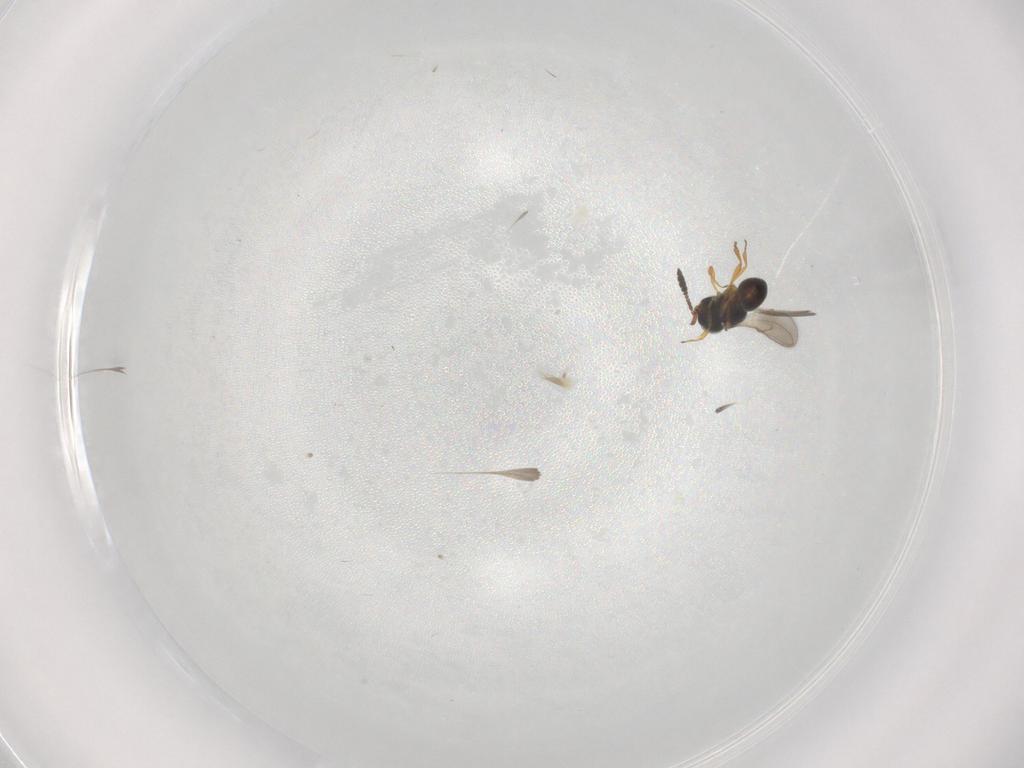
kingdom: Animalia
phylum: Arthropoda
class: Insecta
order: Hymenoptera
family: Scelionidae
